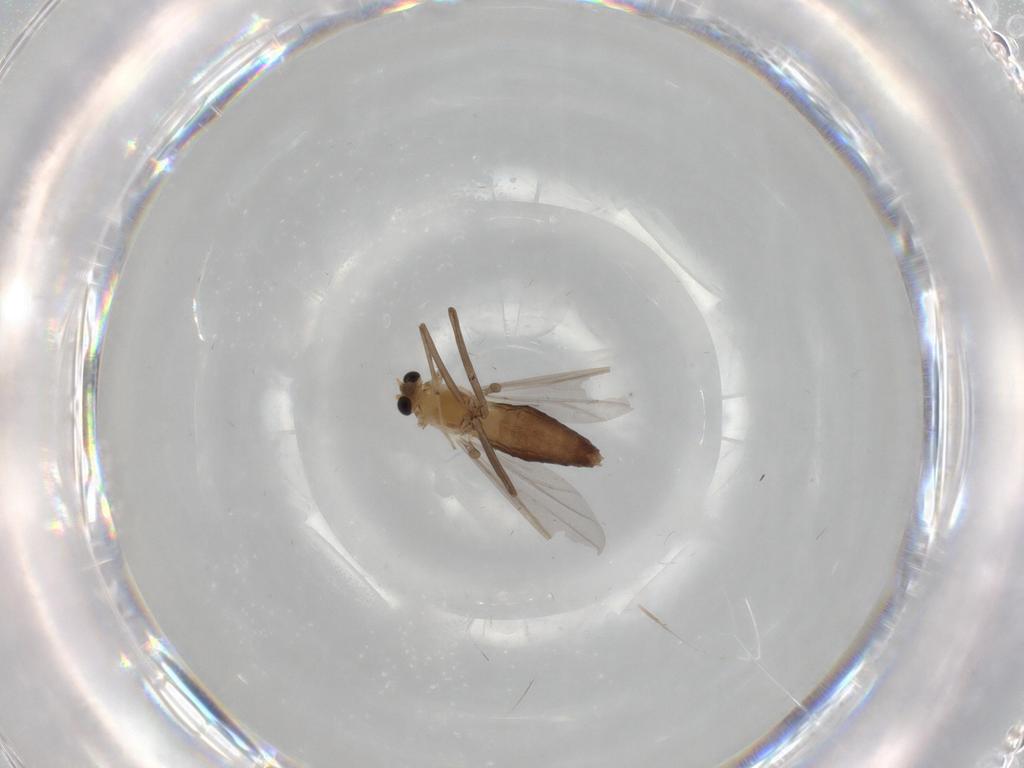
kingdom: Animalia
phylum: Arthropoda
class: Insecta
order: Diptera
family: Chironomidae
